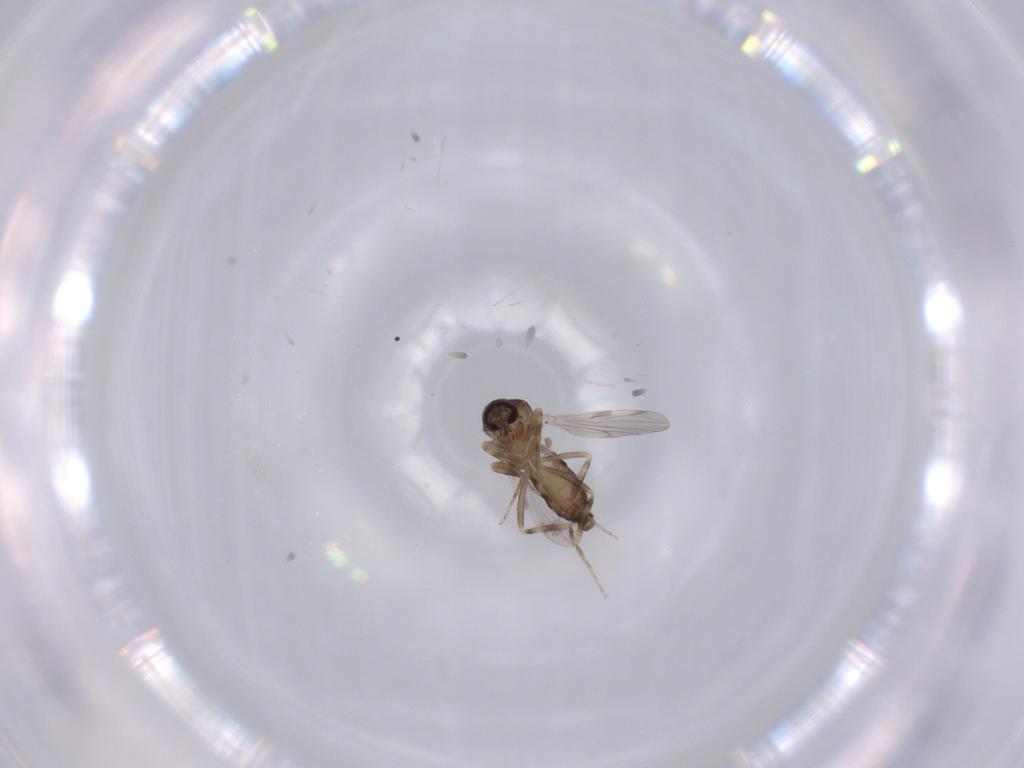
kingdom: Animalia
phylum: Arthropoda
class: Insecta
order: Diptera
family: Ceratopogonidae
